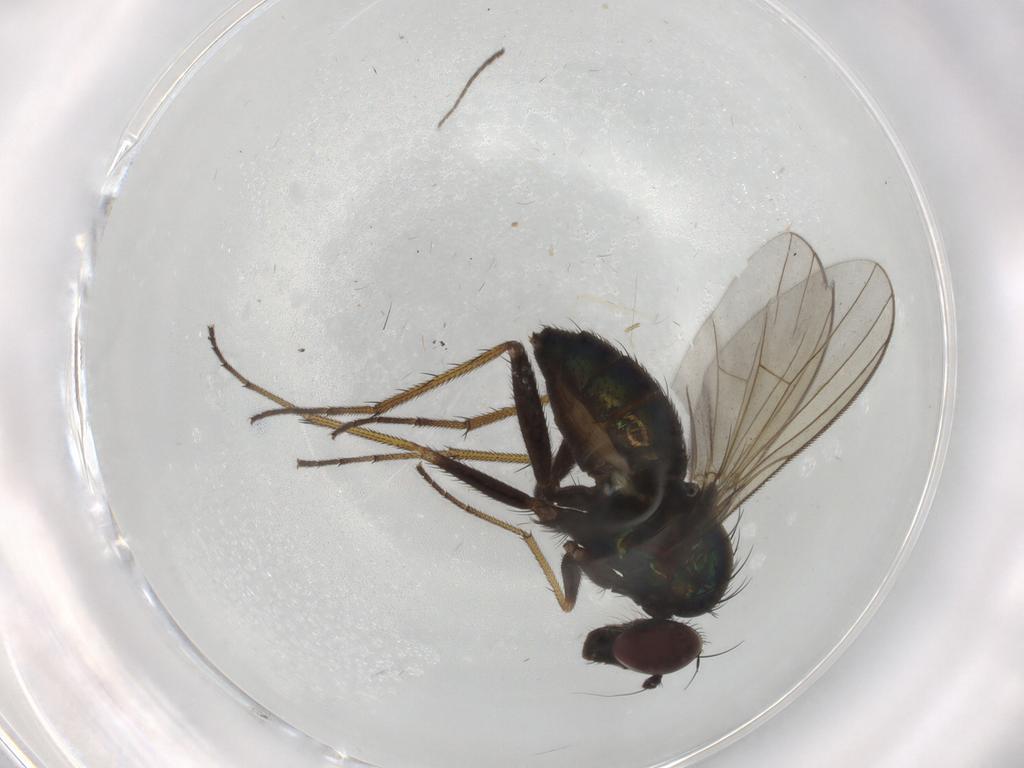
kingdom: Animalia
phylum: Arthropoda
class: Insecta
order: Diptera
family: Dolichopodidae
